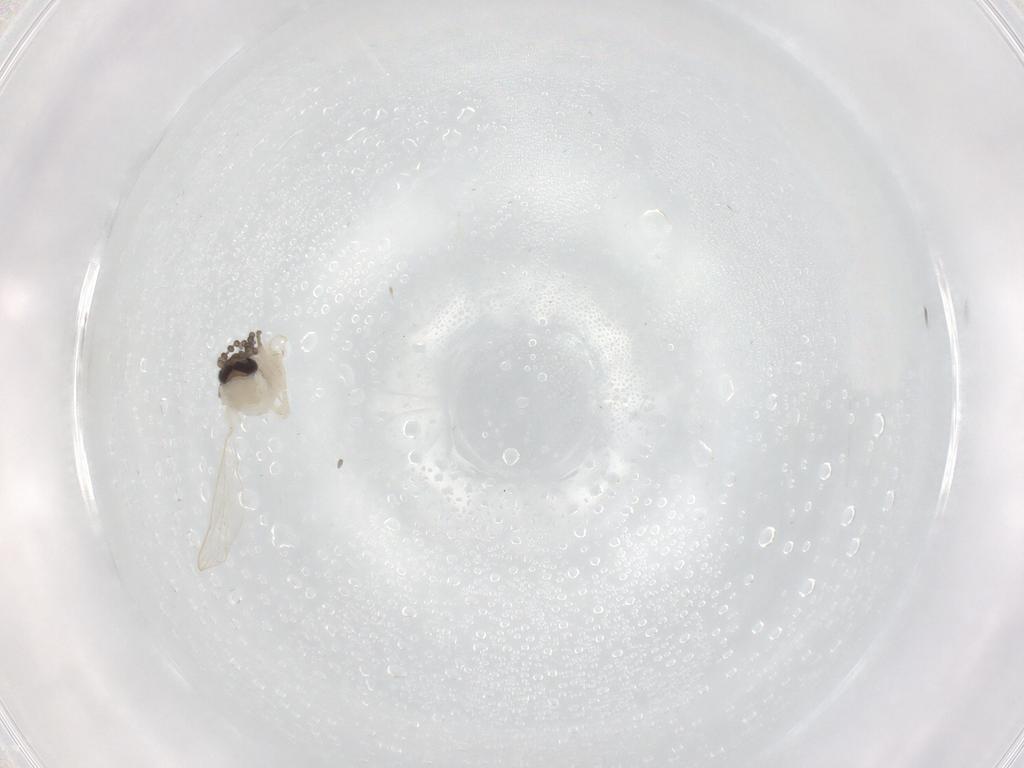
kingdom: Animalia
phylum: Arthropoda
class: Insecta
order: Diptera
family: Psychodidae
